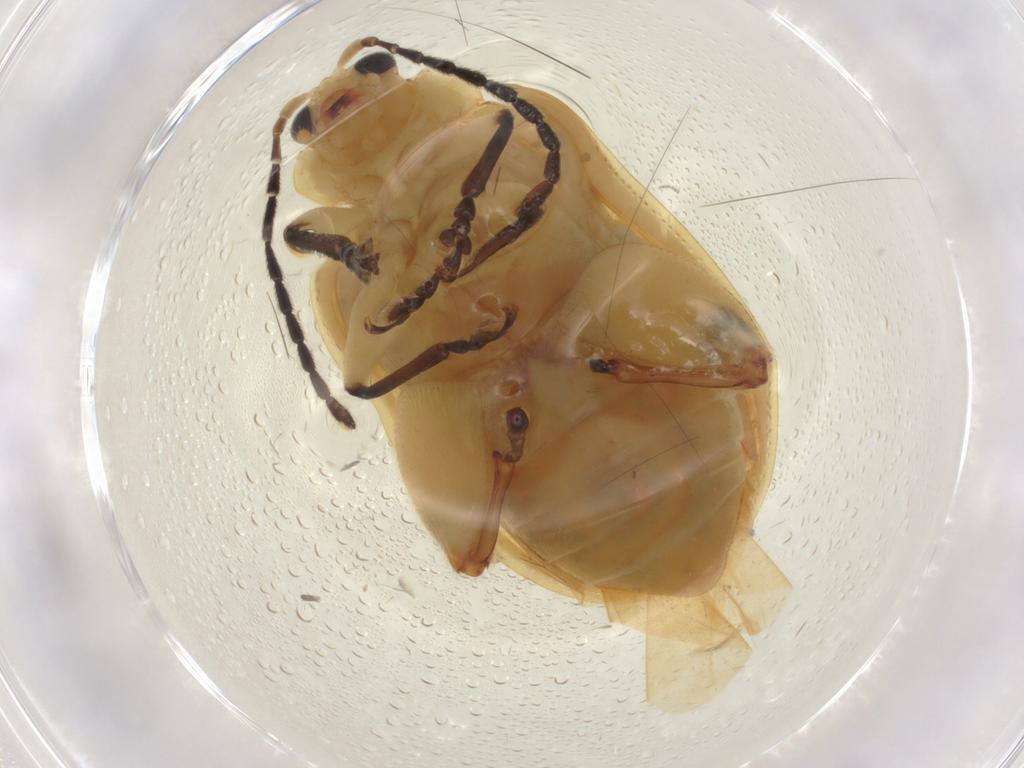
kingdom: Animalia
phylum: Arthropoda
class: Insecta
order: Coleoptera
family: Chrysomelidae
